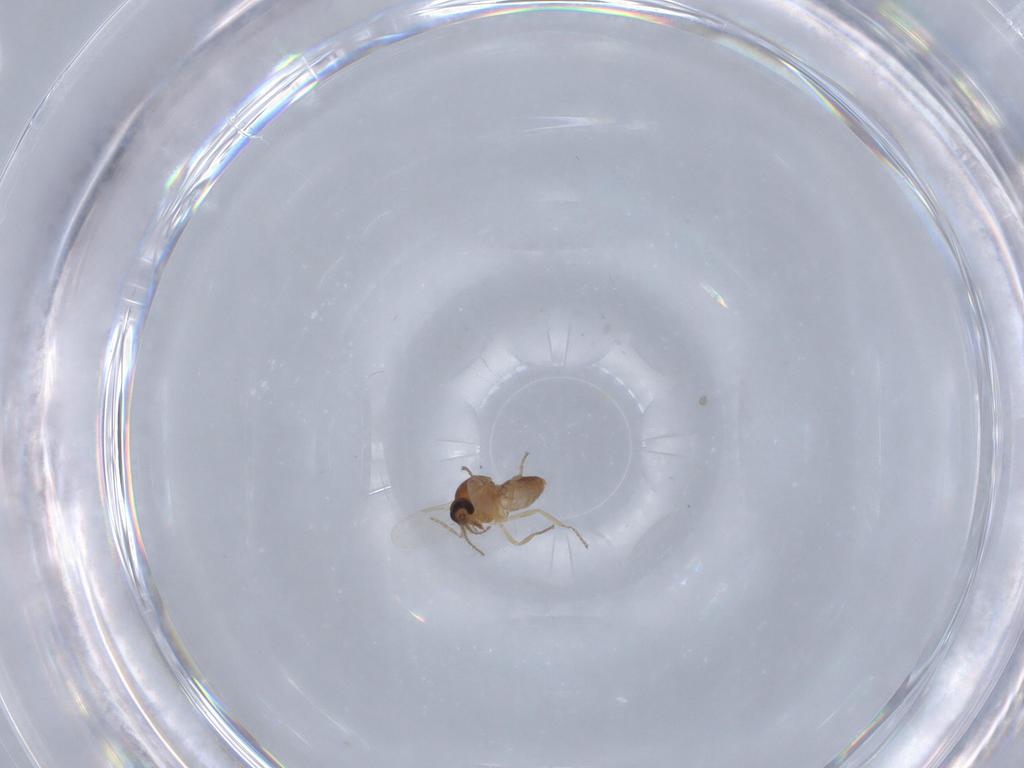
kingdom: Animalia
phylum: Arthropoda
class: Insecta
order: Diptera
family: Ceratopogonidae
